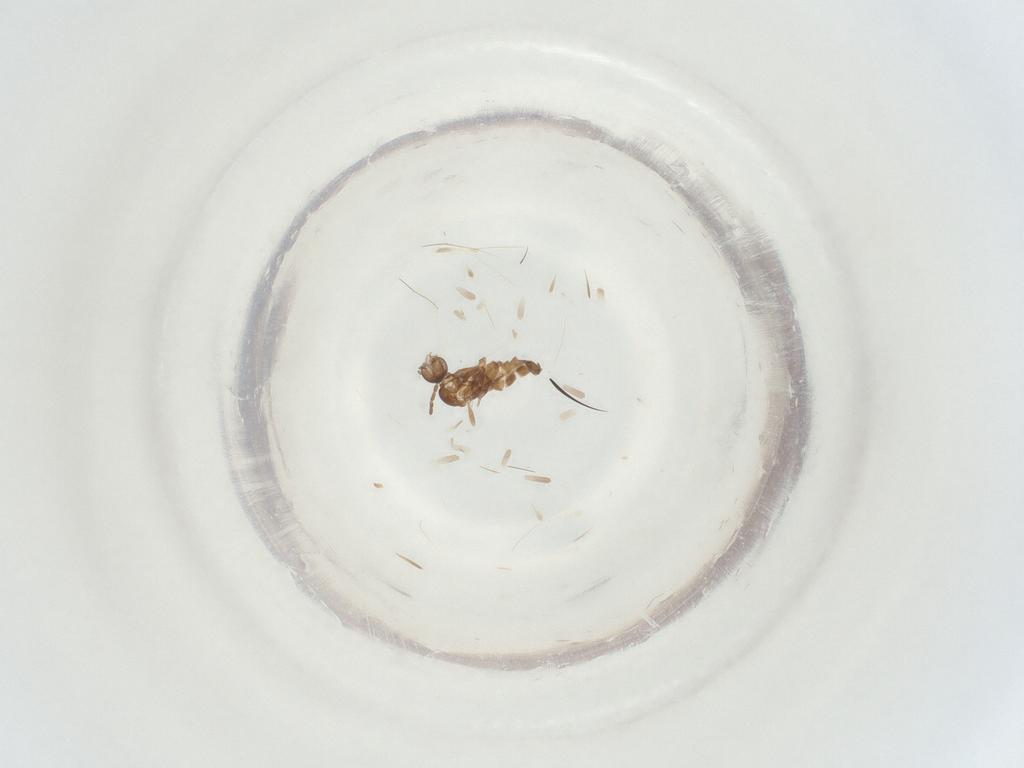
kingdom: Animalia
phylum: Arthropoda
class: Insecta
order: Diptera
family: Sciaridae
